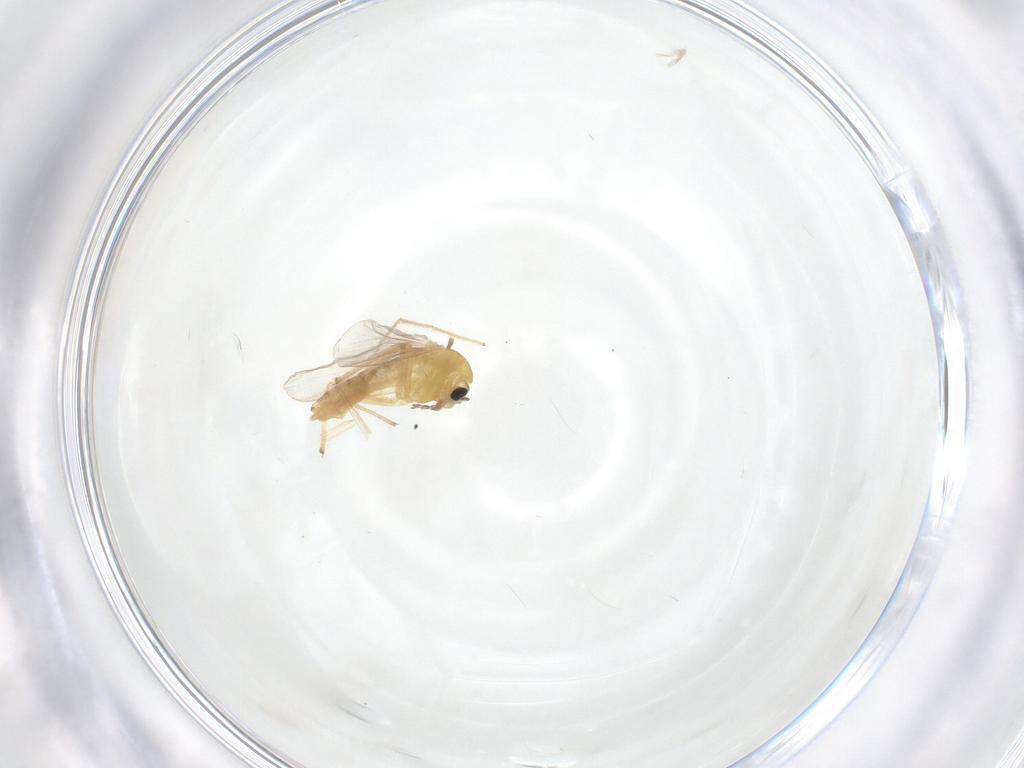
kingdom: Animalia
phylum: Arthropoda
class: Insecta
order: Diptera
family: Chironomidae
